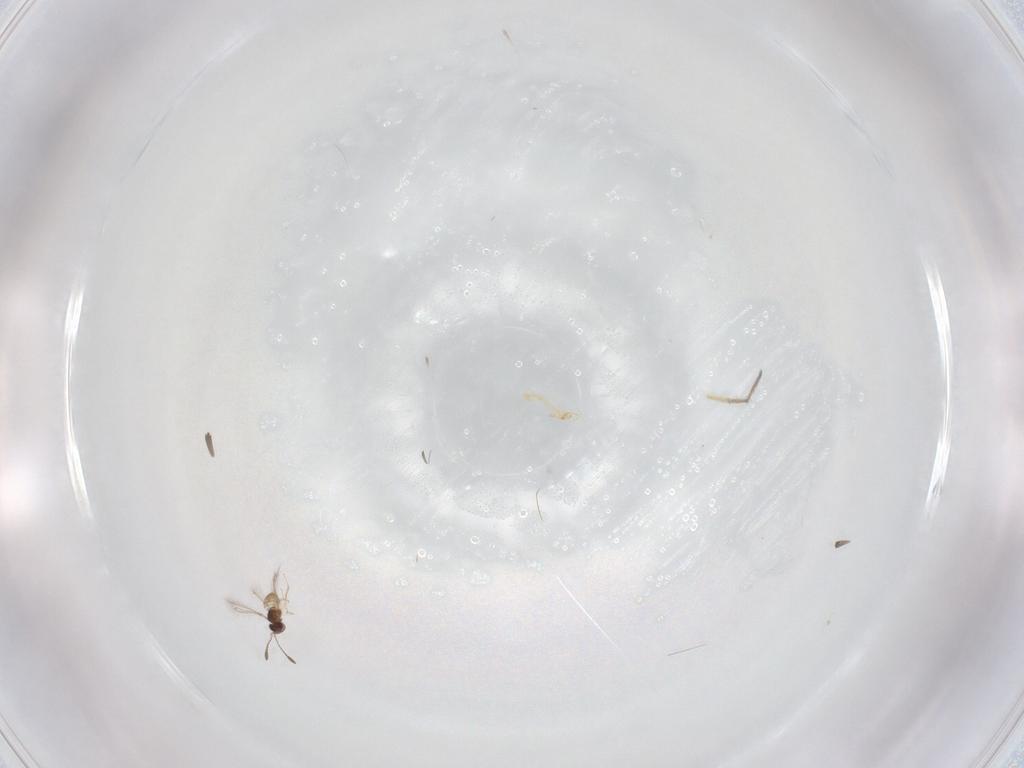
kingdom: Animalia
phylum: Arthropoda
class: Insecta
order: Hymenoptera
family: Mymaridae
